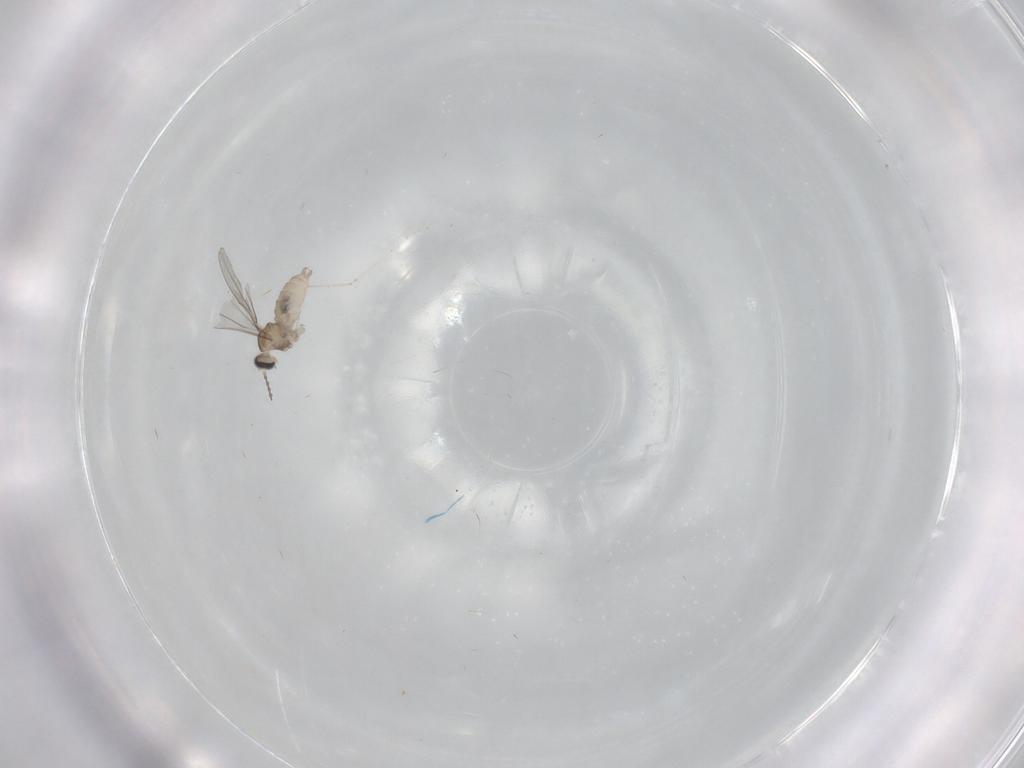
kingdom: Animalia
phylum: Arthropoda
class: Insecta
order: Diptera
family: Cecidomyiidae
